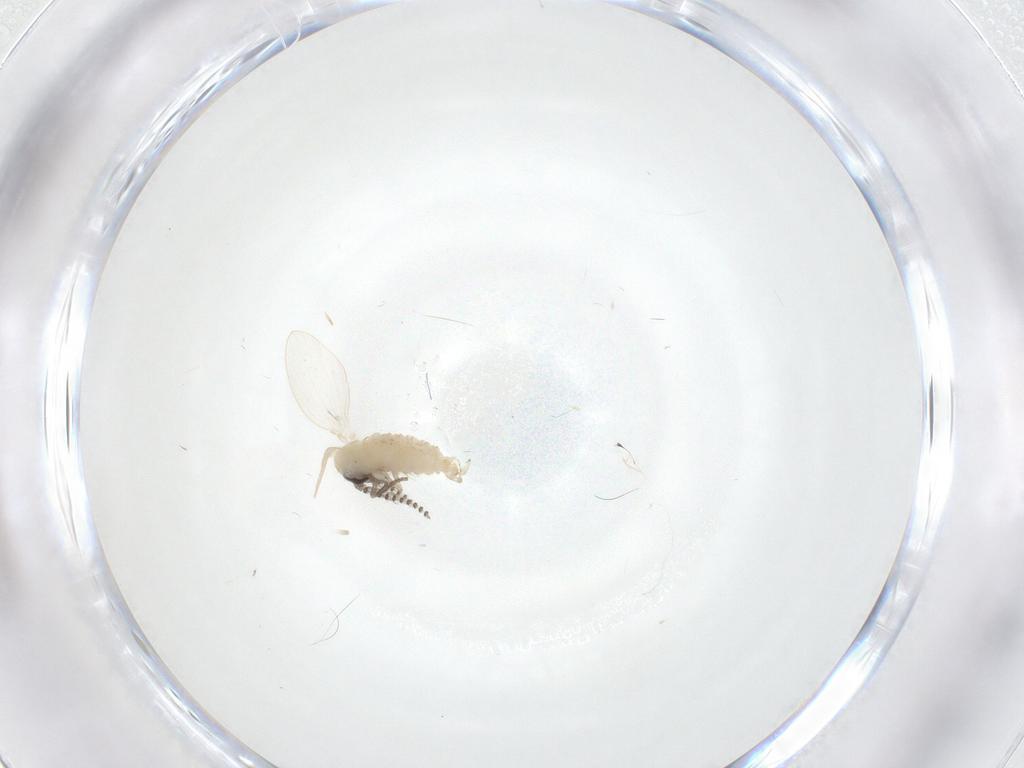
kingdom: Animalia
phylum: Arthropoda
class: Insecta
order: Diptera
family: Psychodidae
